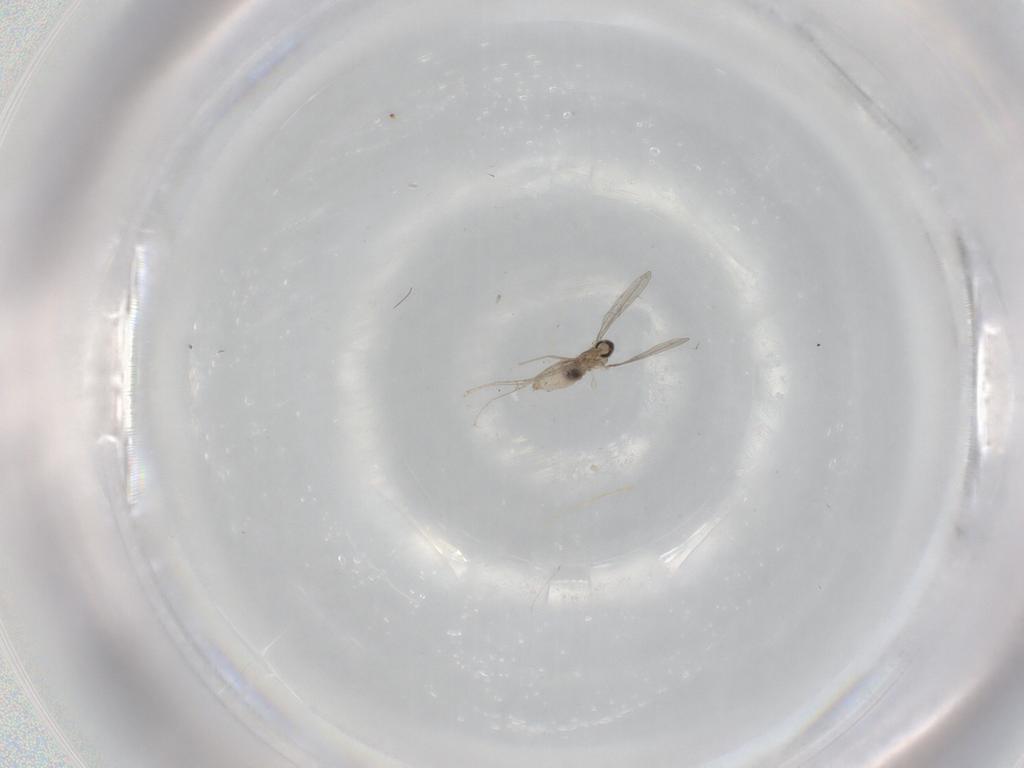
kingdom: Animalia
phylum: Arthropoda
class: Insecta
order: Diptera
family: Cecidomyiidae
